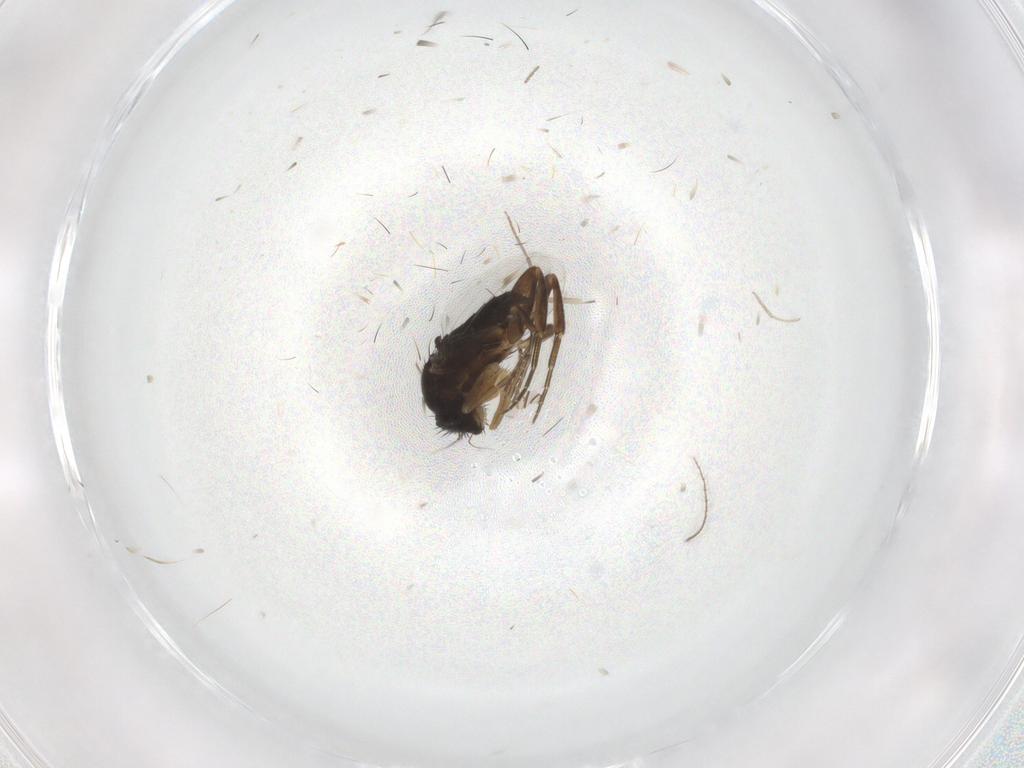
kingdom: Animalia
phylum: Arthropoda
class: Insecta
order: Diptera
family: Phoridae
